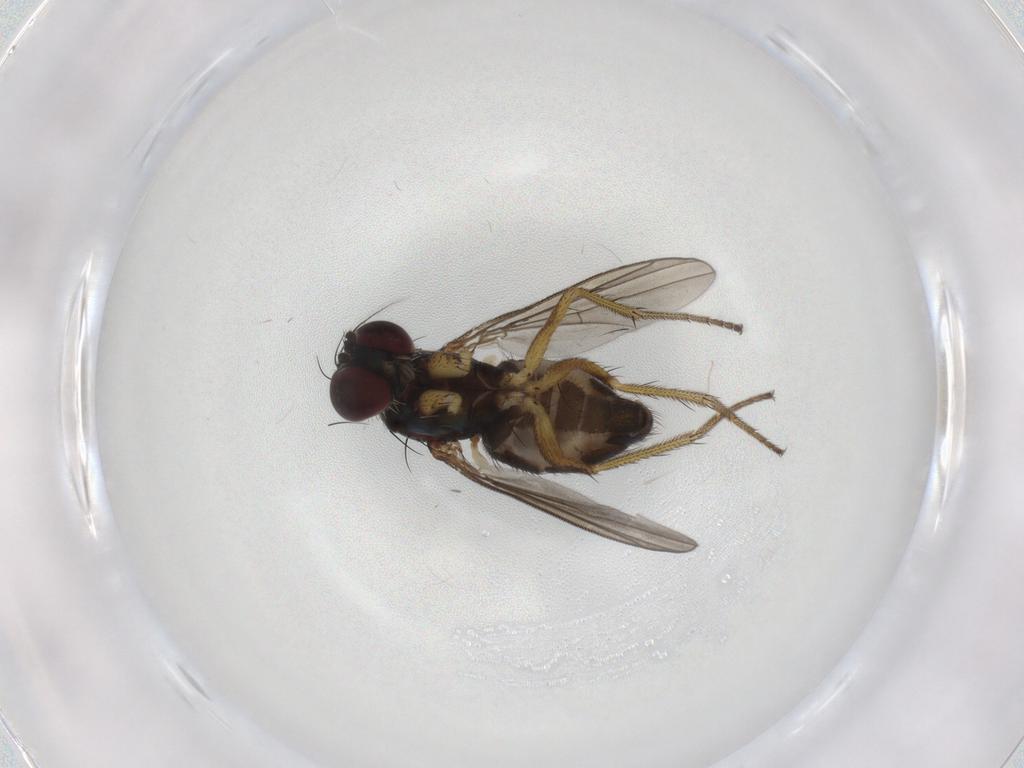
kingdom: Animalia
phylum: Arthropoda
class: Insecta
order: Diptera
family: Dolichopodidae
